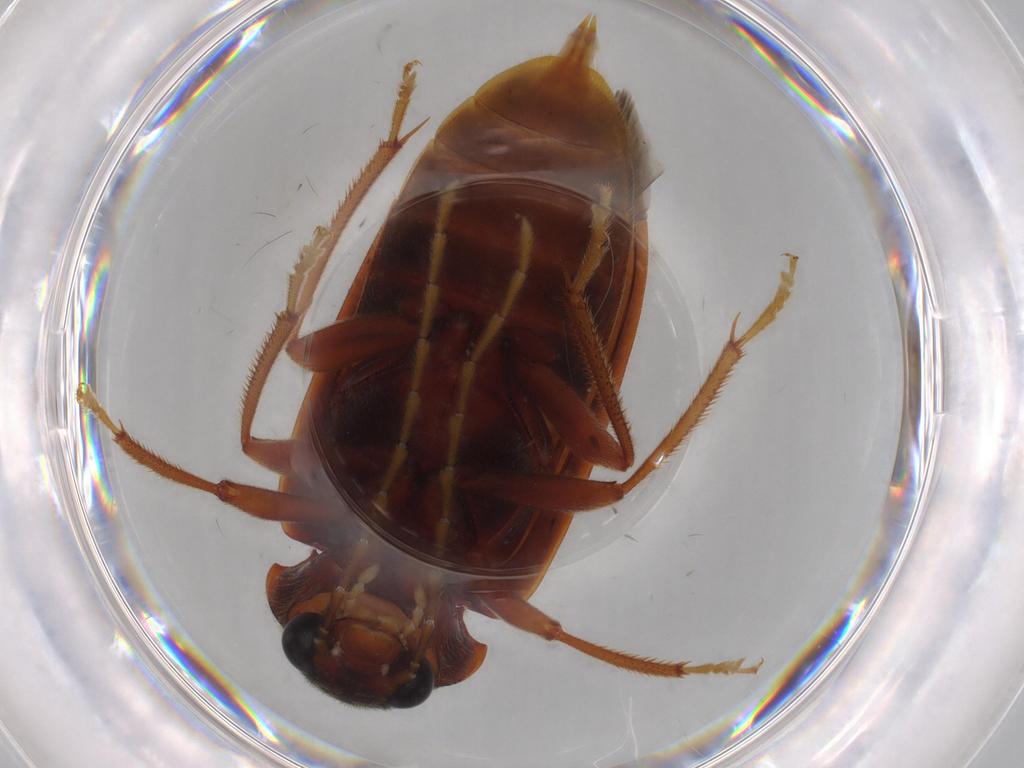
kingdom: Animalia
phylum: Arthropoda
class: Insecta
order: Coleoptera
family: Ptilodactylidae
